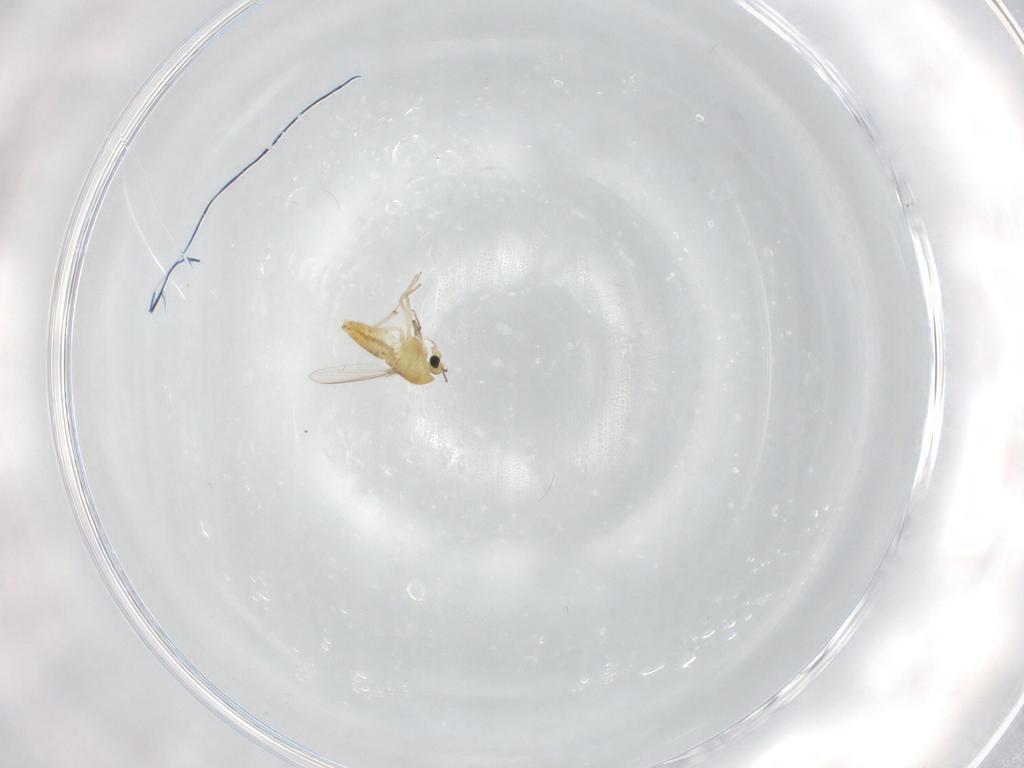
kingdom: Animalia
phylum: Arthropoda
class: Insecta
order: Diptera
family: Chironomidae
